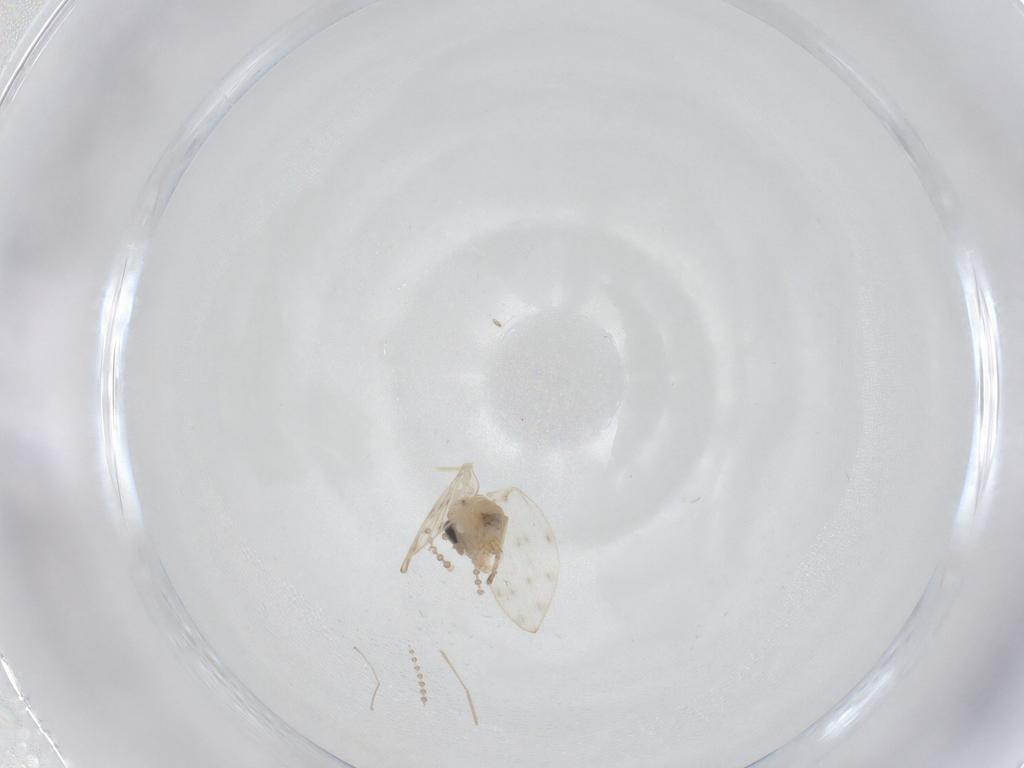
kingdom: Animalia
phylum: Arthropoda
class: Insecta
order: Diptera
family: Psychodidae
